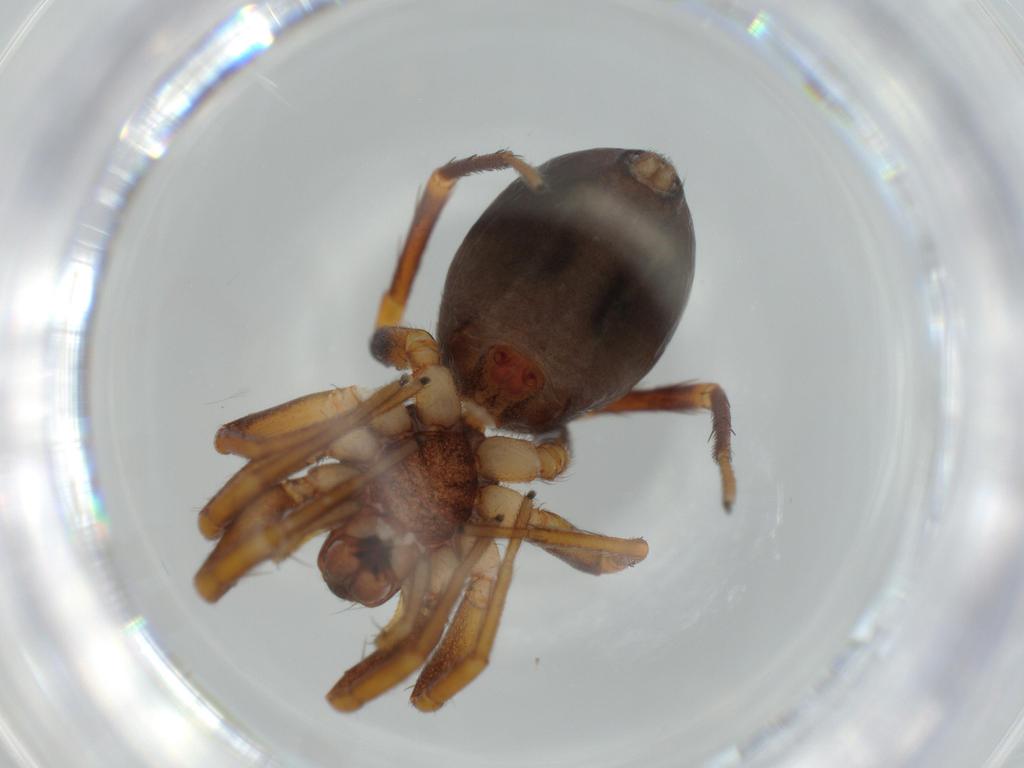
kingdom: Animalia
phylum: Arthropoda
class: Arachnida
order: Araneae
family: Corinnidae
